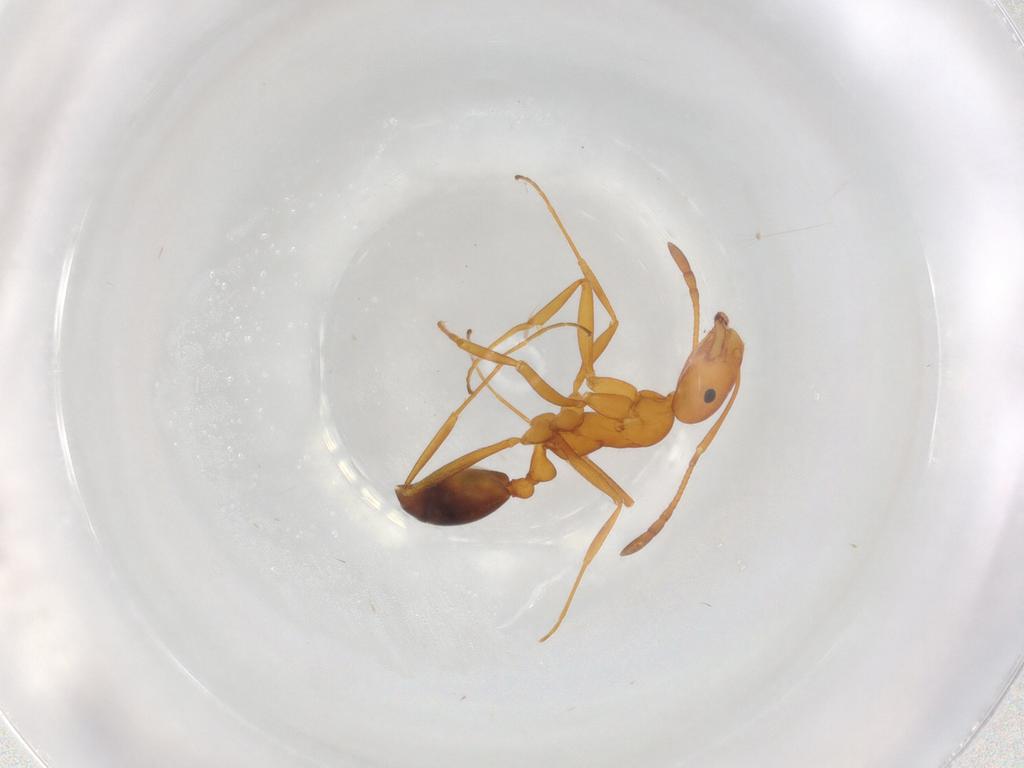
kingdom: Animalia
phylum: Arthropoda
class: Insecta
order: Hymenoptera
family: Formicidae
